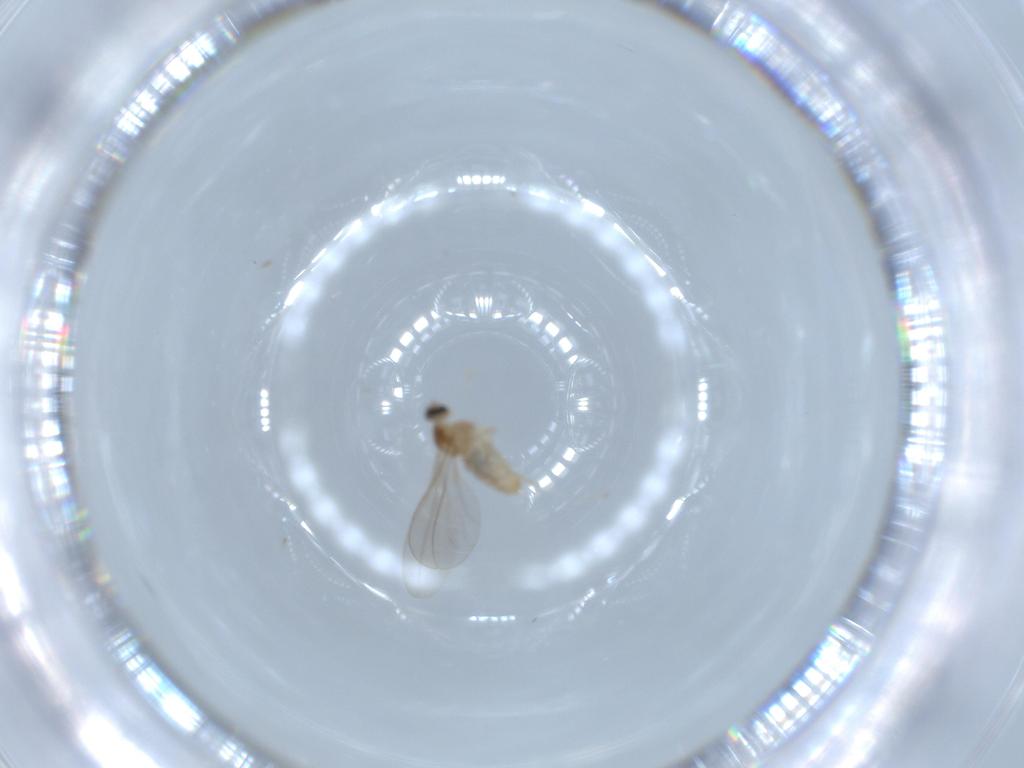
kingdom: Animalia
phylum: Arthropoda
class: Insecta
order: Diptera
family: Cecidomyiidae
